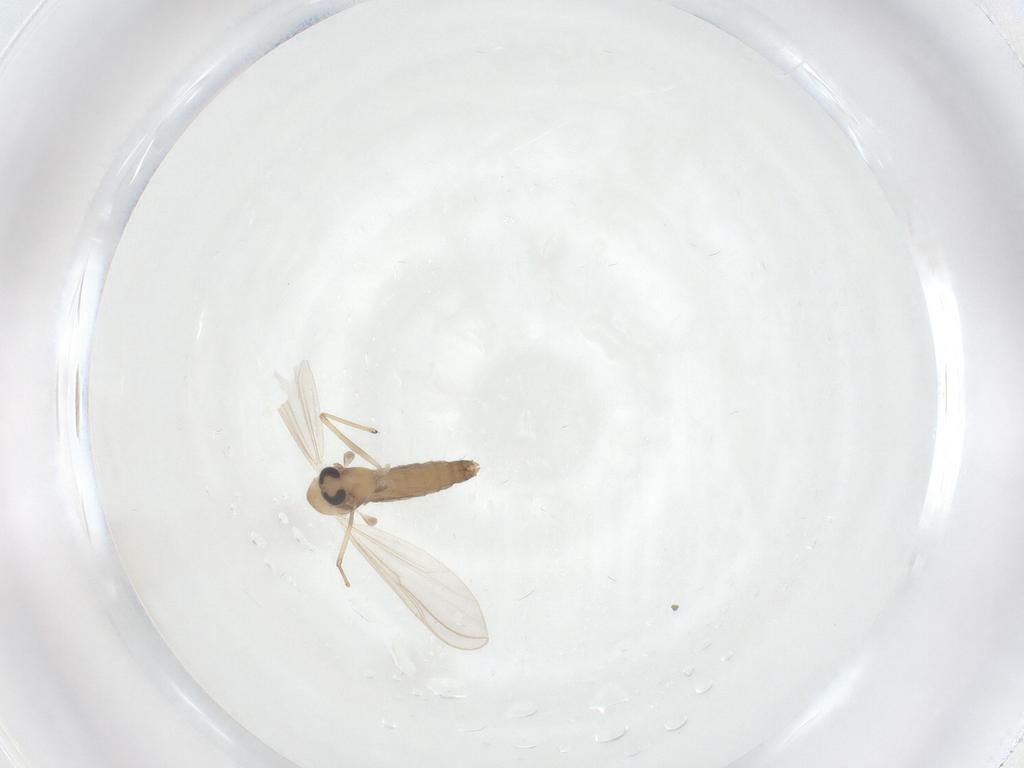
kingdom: Animalia
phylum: Arthropoda
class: Insecta
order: Diptera
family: Chironomidae
